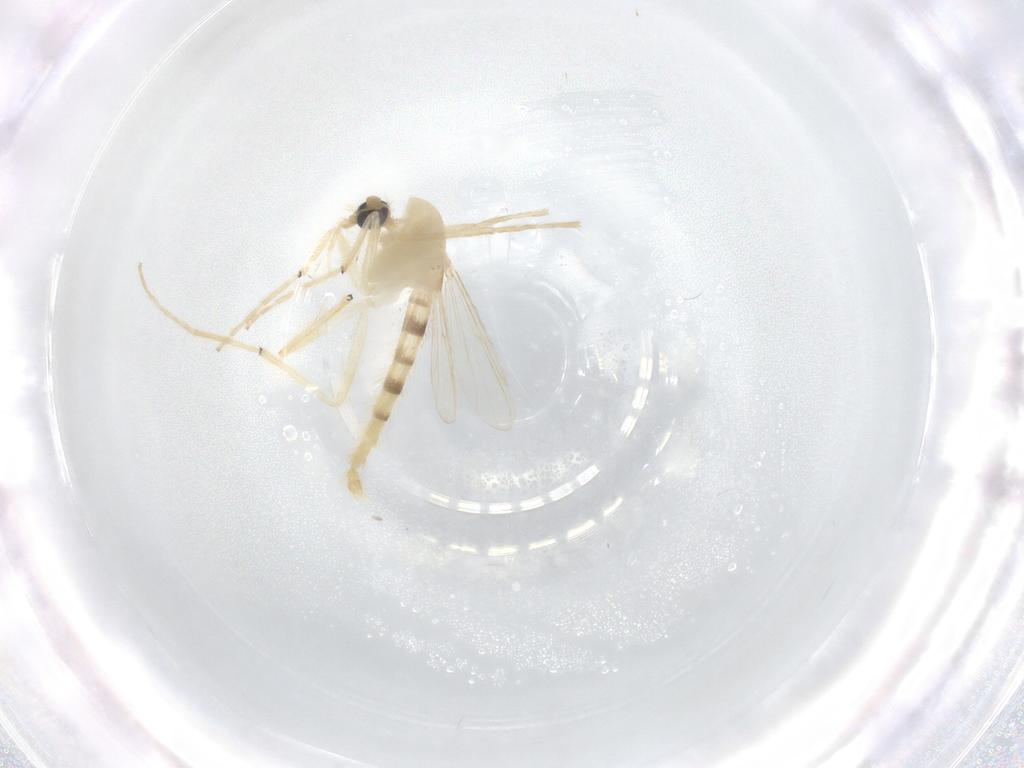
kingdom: Animalia
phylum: Arthropoda
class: Insecta
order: Diptera
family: Chironomidae
